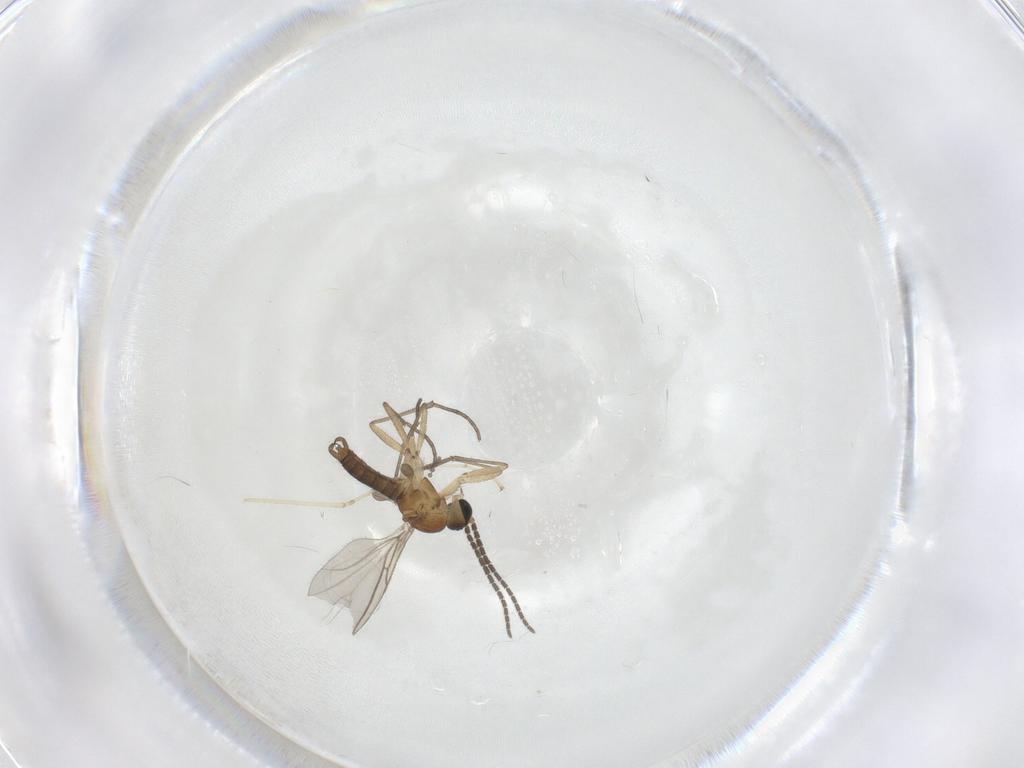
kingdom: Animalia
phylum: Arthropoda
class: Insecta
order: Diptera
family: Sciaridae
